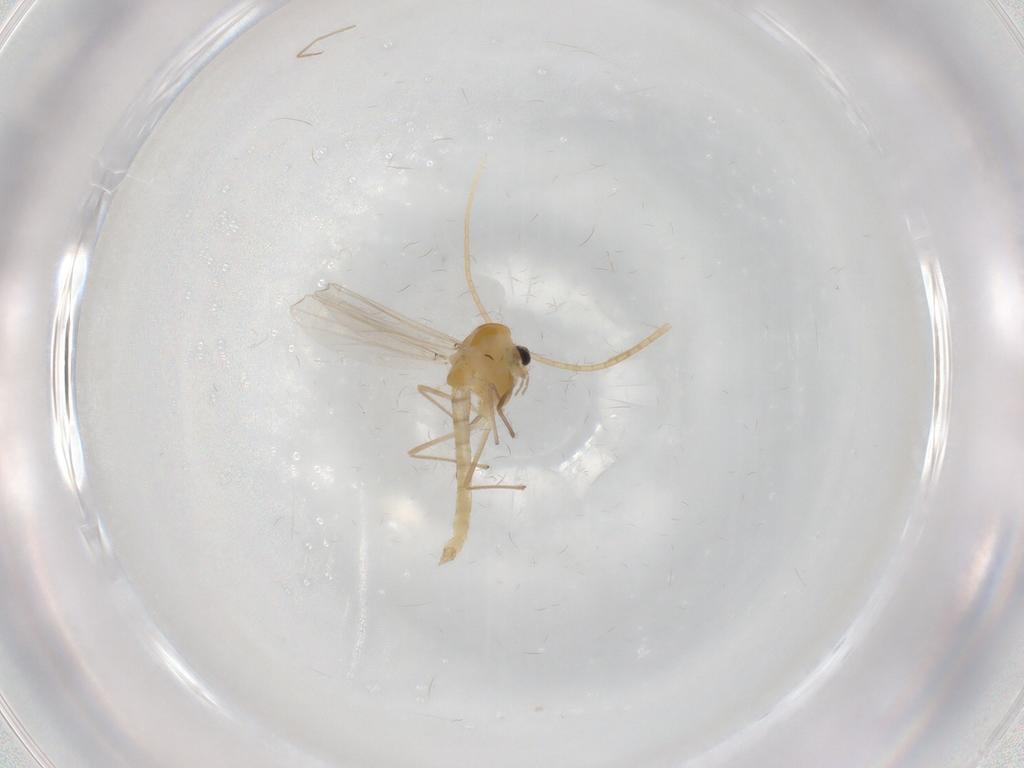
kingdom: Animalia
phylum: Arthropoda
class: Insecta
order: Diptera
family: Chironomidae
